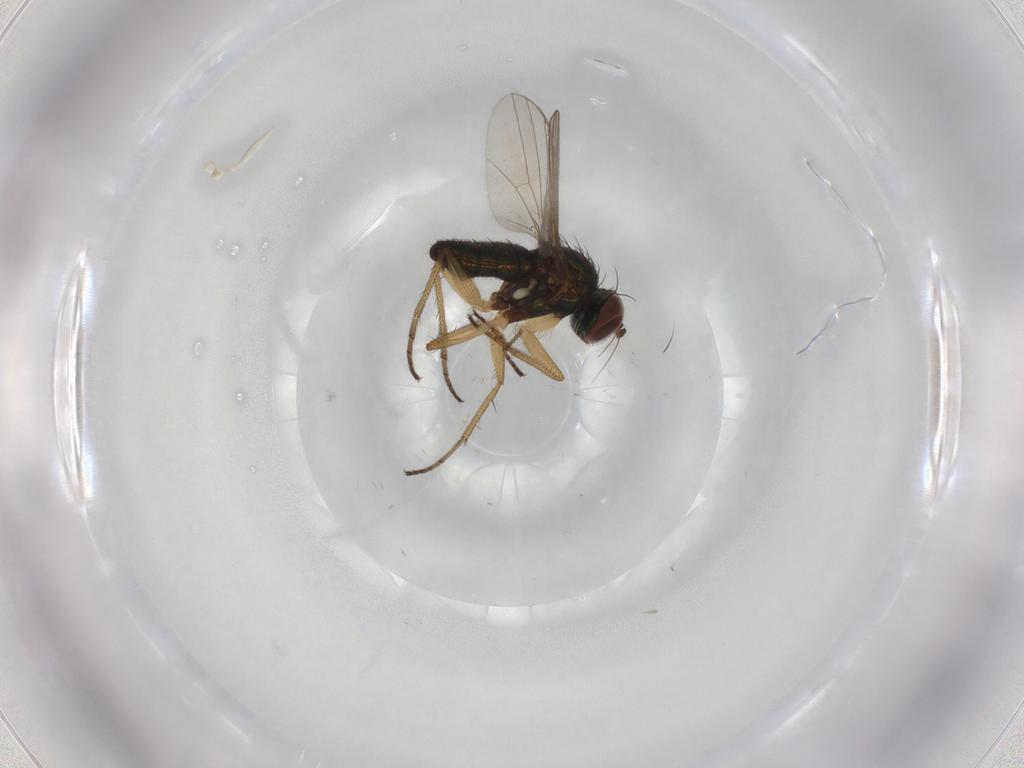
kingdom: Animalia
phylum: Arthropoda
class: Insecta
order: Diptera
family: Dolichopodidae
